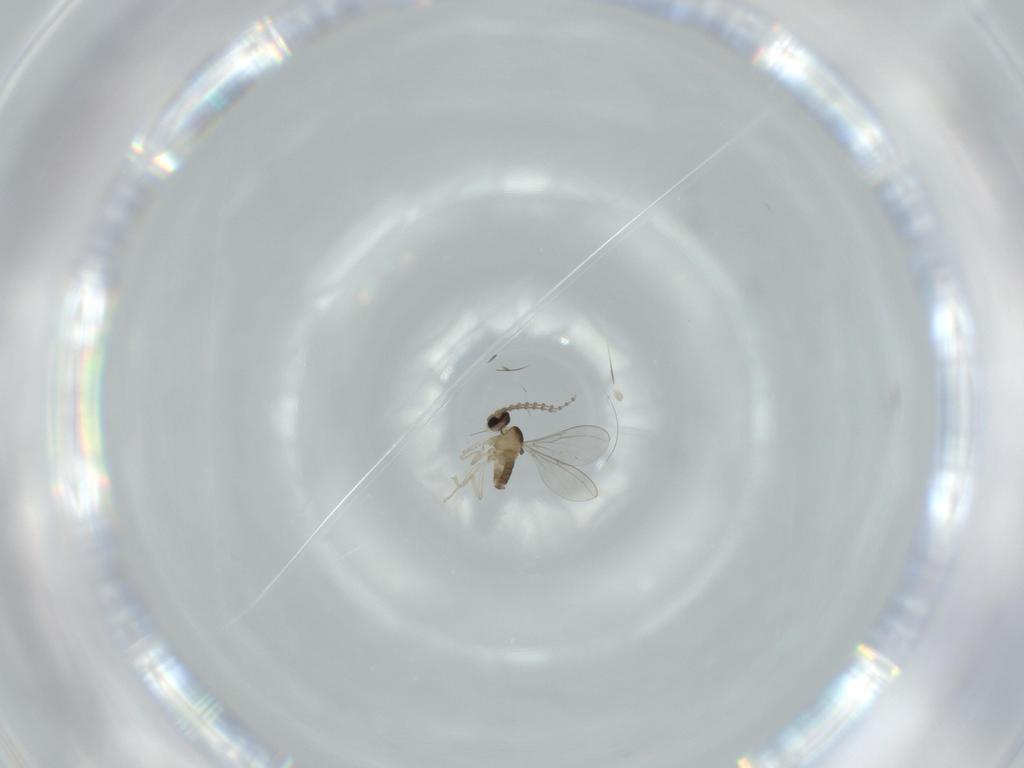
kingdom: Animalia
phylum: Arthropoda
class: Insecta
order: Diptera
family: Cecidomyiidae
